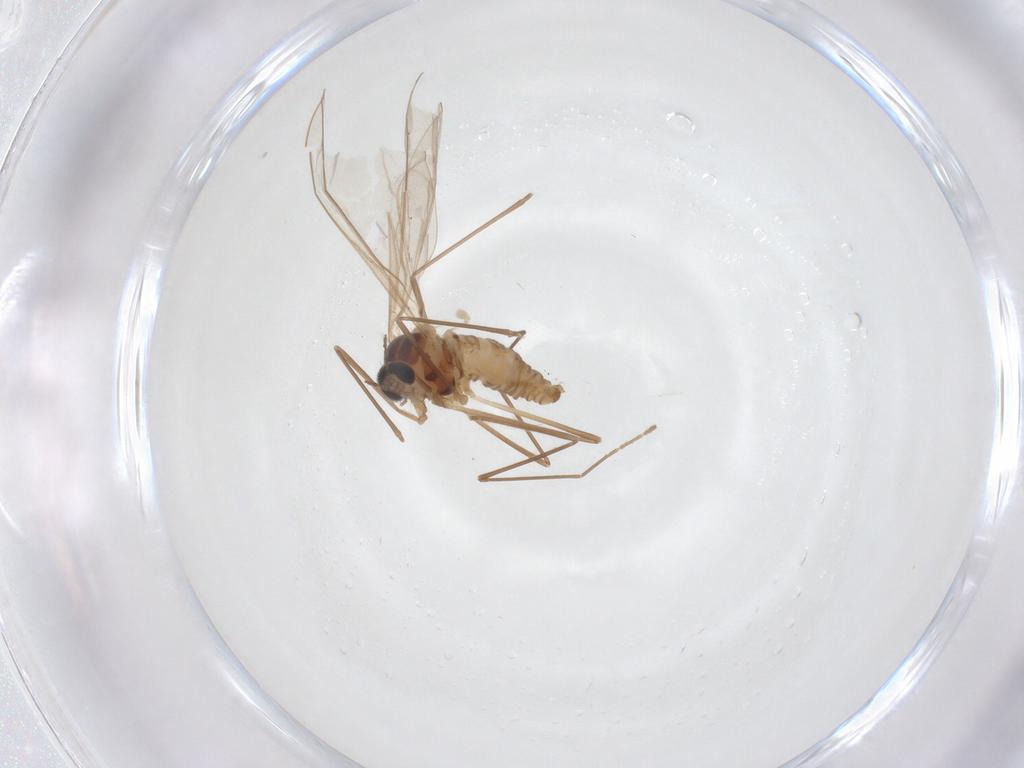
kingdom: Animalia
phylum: Arthropoda
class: Insecta
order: Diptera
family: Cecidomyiidae
